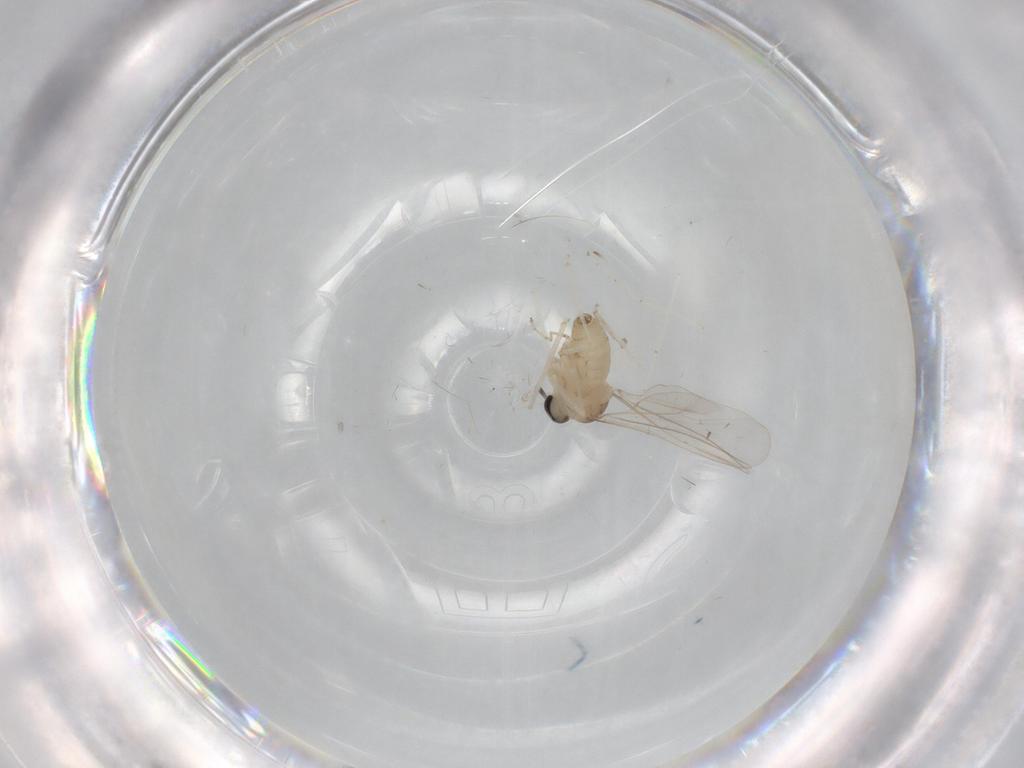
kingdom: Animalia
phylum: Arthropoda
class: Insecta
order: Diptera
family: Cecidomyiidae
